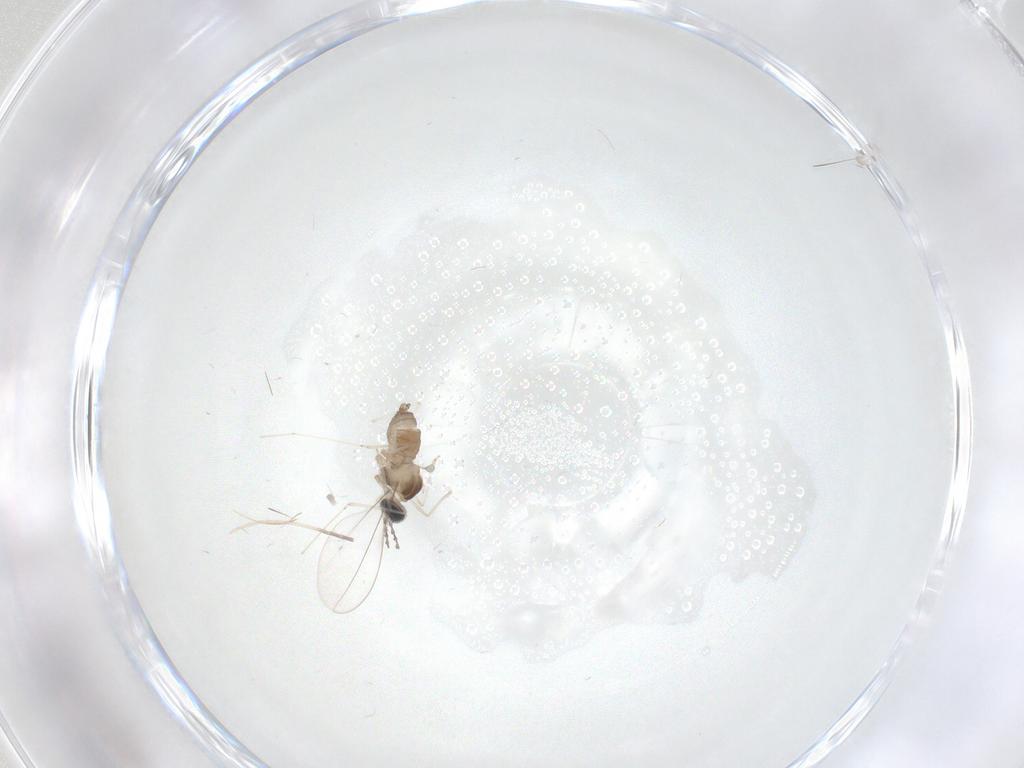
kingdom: Animalia
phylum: Arthropoda
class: Insecta
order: Diptera
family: Cecidomyiidae
